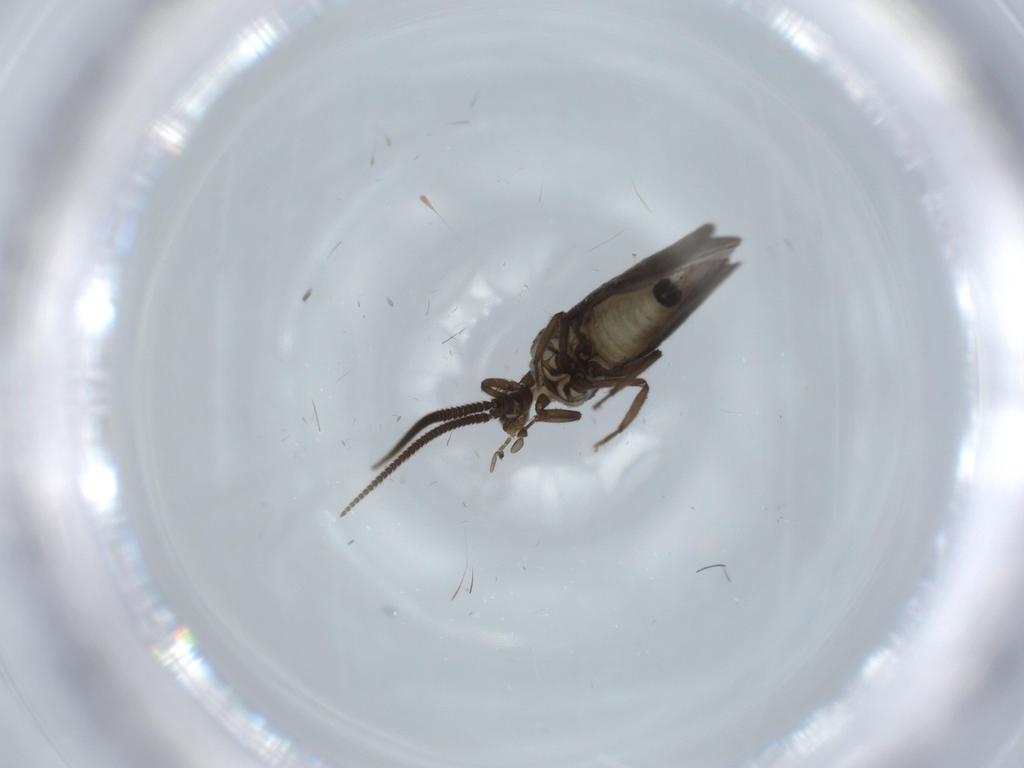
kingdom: Animalia
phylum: Arthropoda
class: Insecta
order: Neuroptera
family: Coniopterygidae
